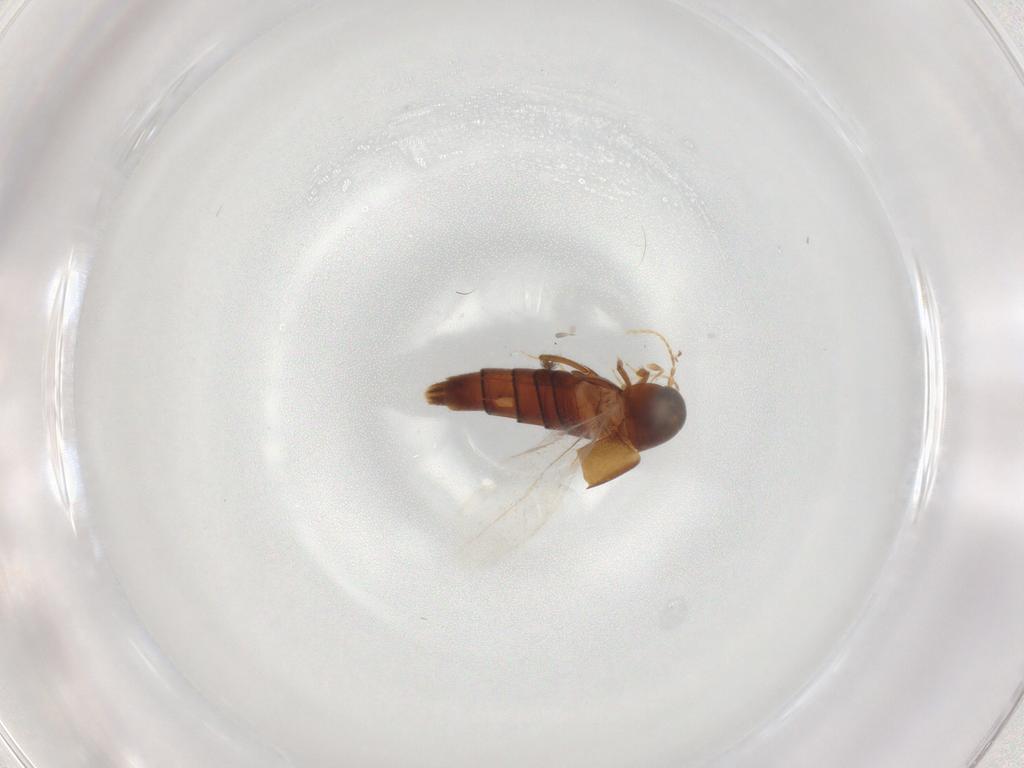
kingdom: Animalia
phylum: Arthropoda
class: Insecta
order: Coleoptera
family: Staphylinidae
